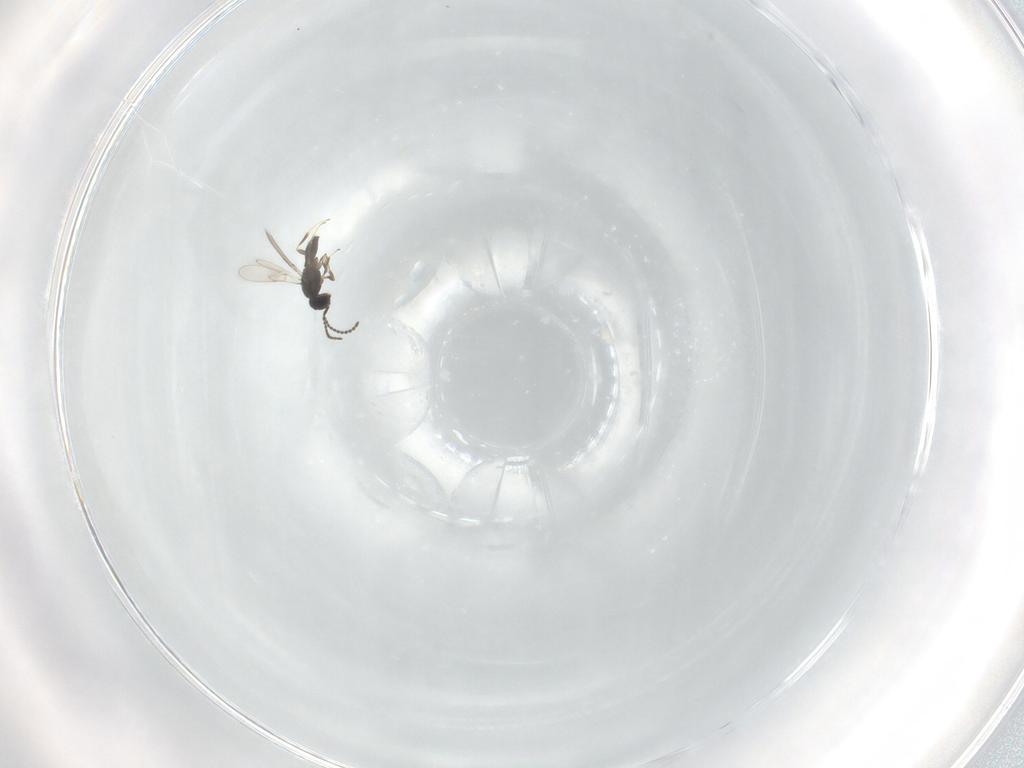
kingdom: Animalia
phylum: Arthropoda
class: Insecta
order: Hymenoptera
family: Scelionidae
